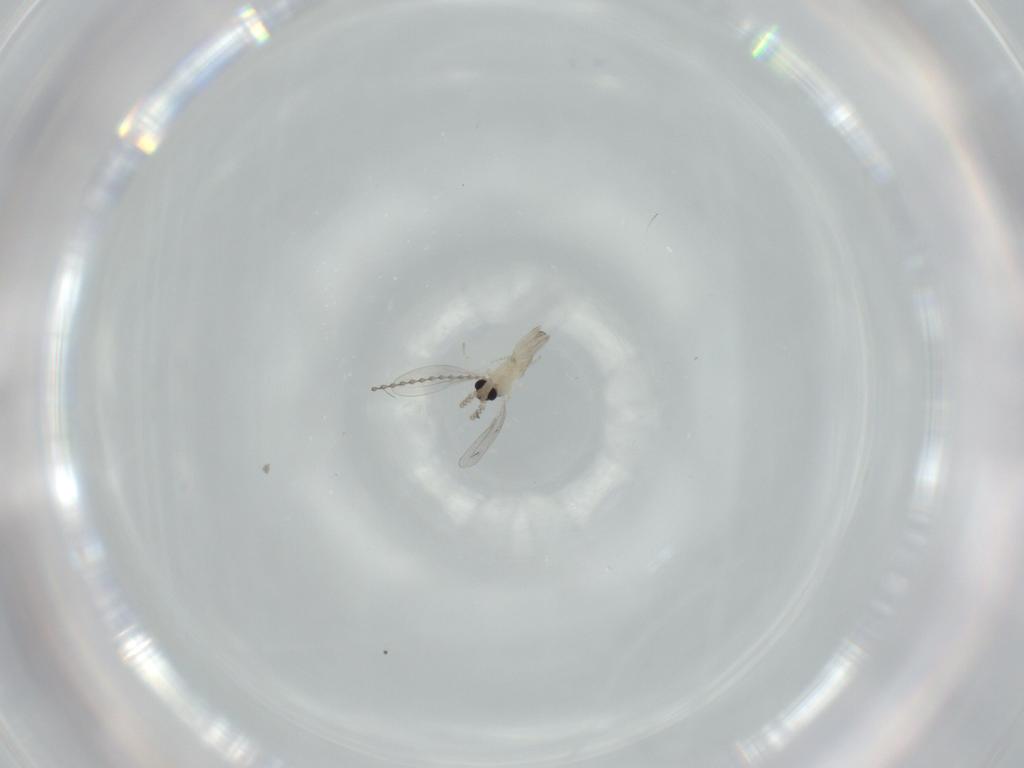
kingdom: Animalia
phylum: Arthropoda
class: Insecta
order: Diptera
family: Cecidomyiidae
